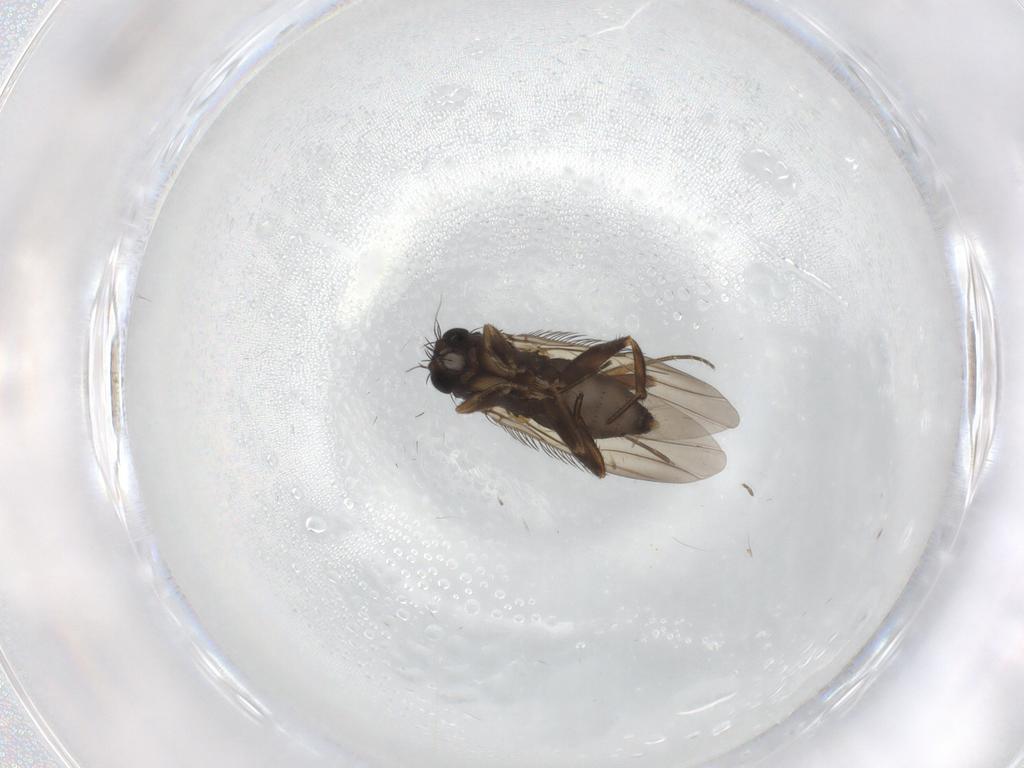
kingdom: Animalia
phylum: Arthropoda
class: Insecta
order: Diptera
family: Phoridae
